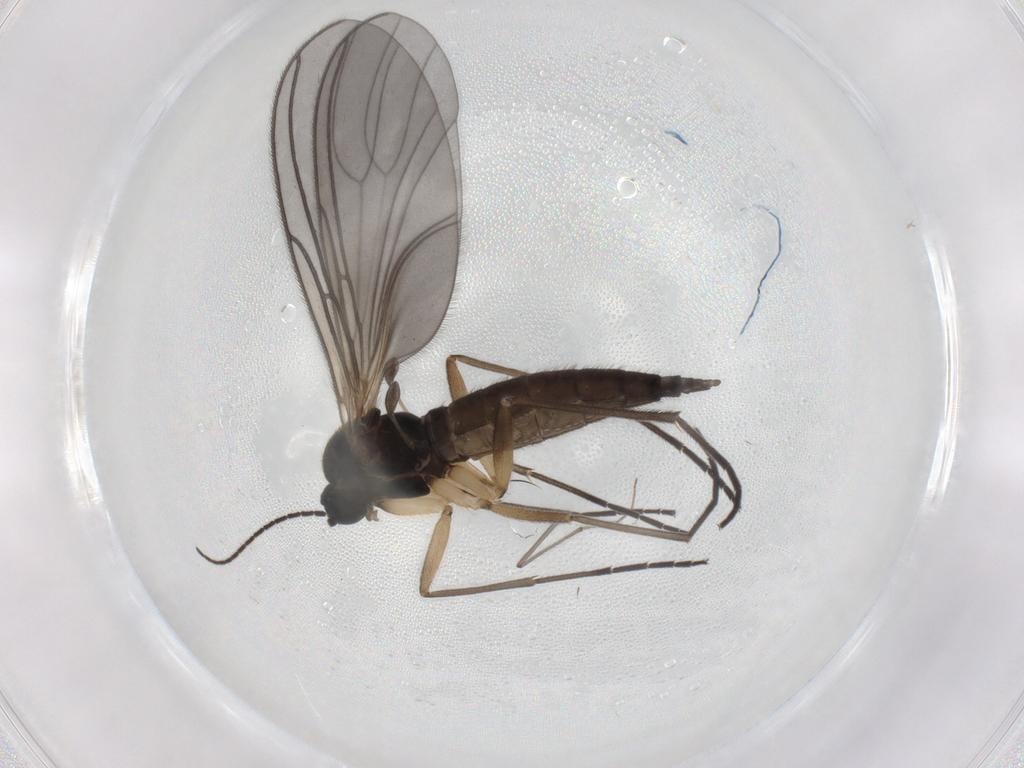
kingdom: Animalia
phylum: Arthropoda
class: Insecta
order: Diptera
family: Sciaridae
